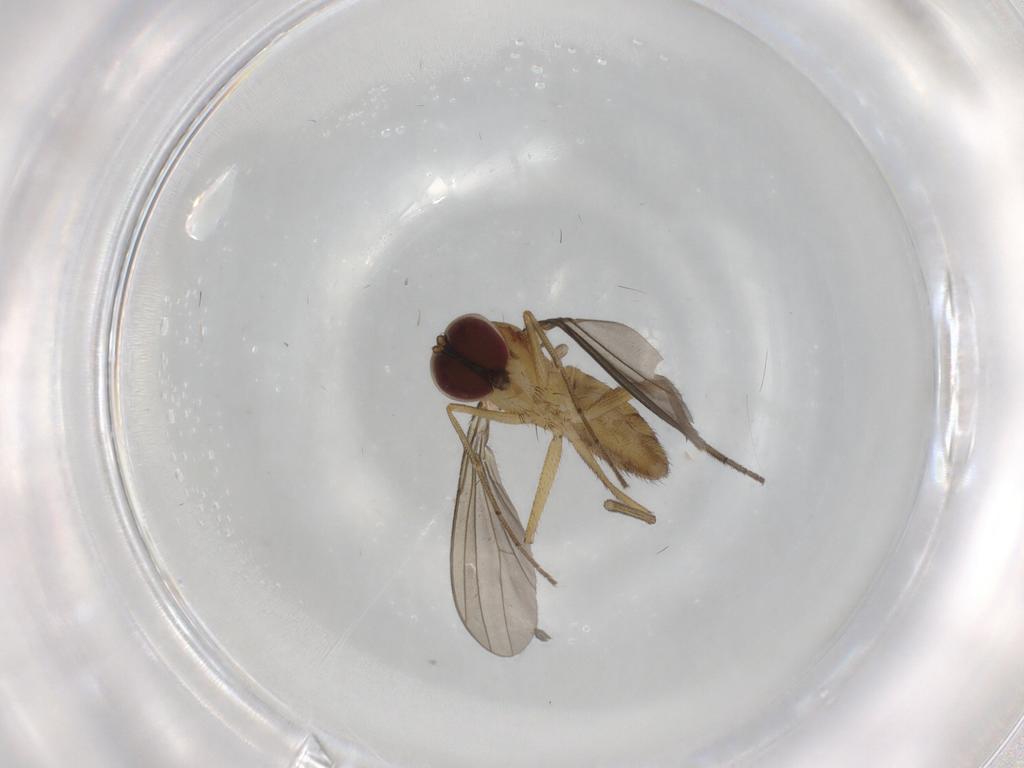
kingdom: Animalia
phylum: Arthropoda
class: Insecta
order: Diptera
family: Dolichopodidae
